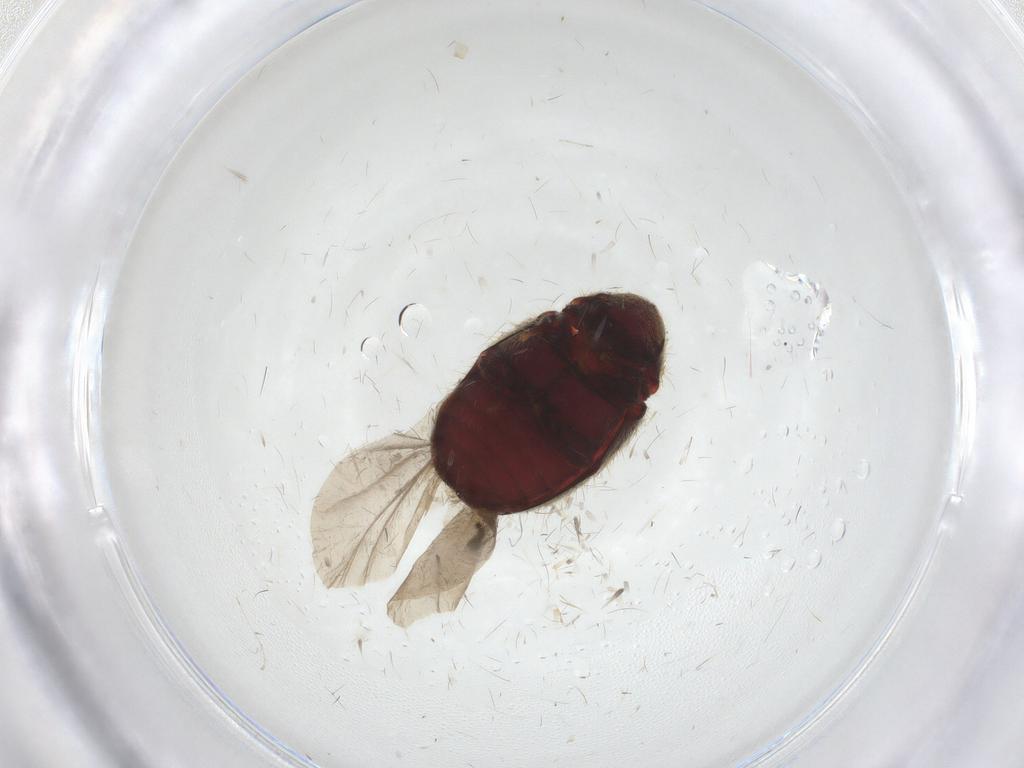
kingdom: Animalia
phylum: Arthropoda
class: Insecta
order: Coleoptera
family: Ptinidae
